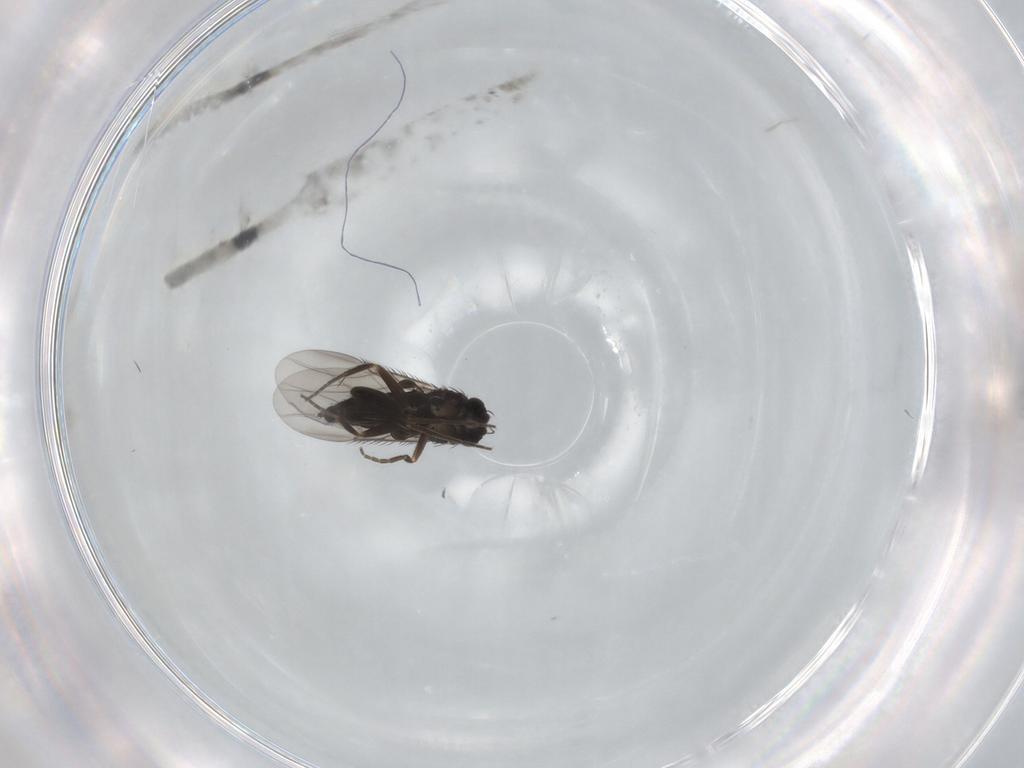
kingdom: Animalia
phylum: Arthropoda
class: Insecta
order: Diptera
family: Phoridae
